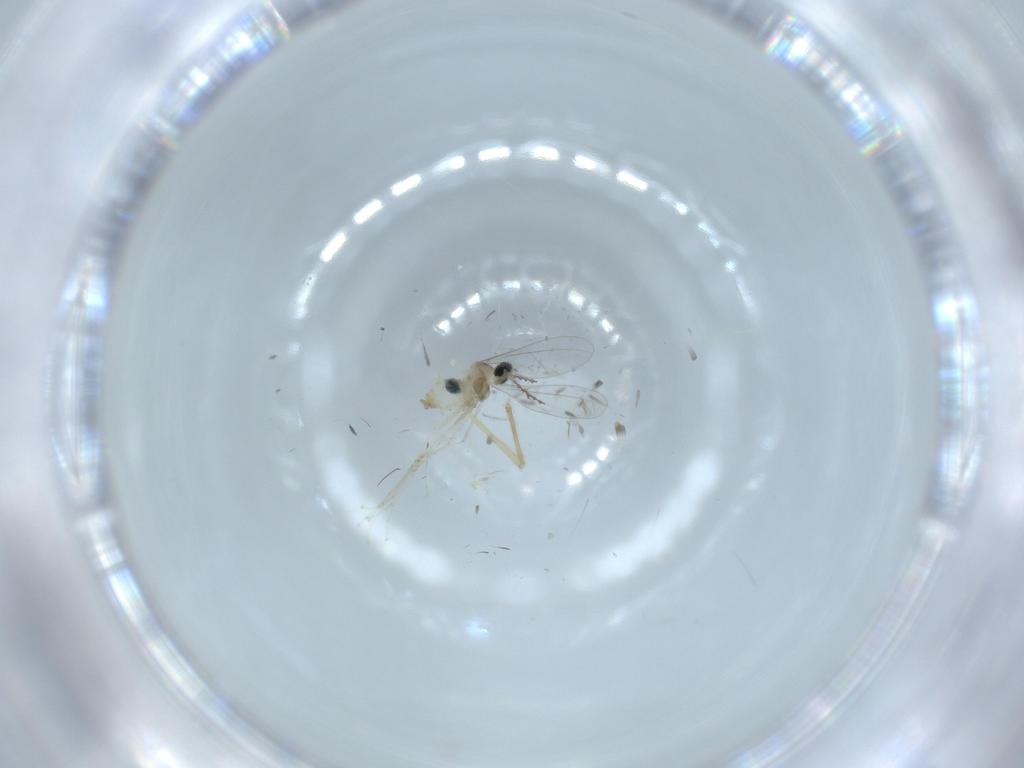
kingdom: Animalia
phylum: Arthropoda
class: Insecta
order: Diptera
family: Cecidomyiidae
